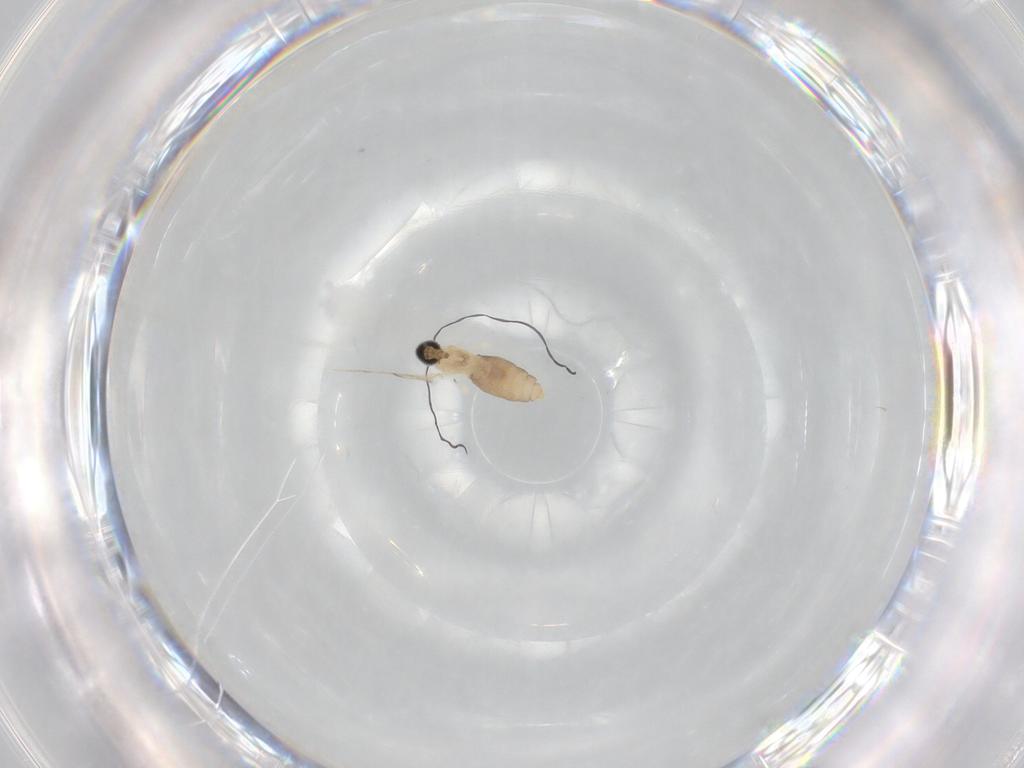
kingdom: Animalia
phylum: Arthropoda
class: Insecta
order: Diptera
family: Cecidomyiidae
